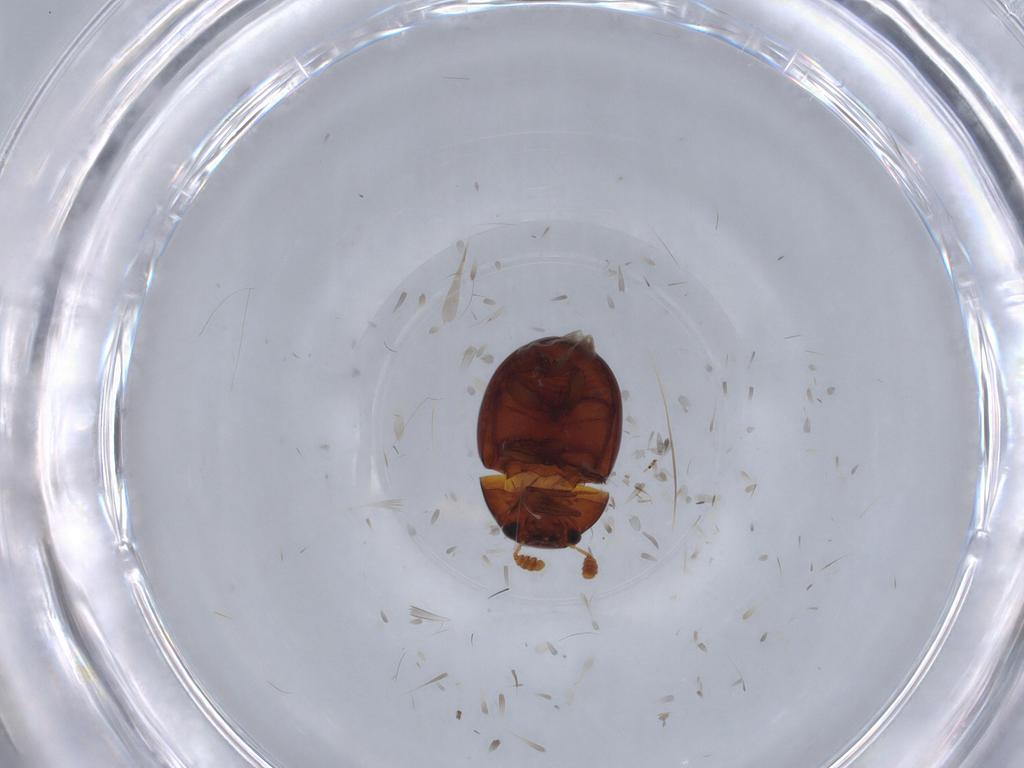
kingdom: Animalia
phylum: Arthropoda
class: Insecta
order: Coleoptera
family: Leiodidae
